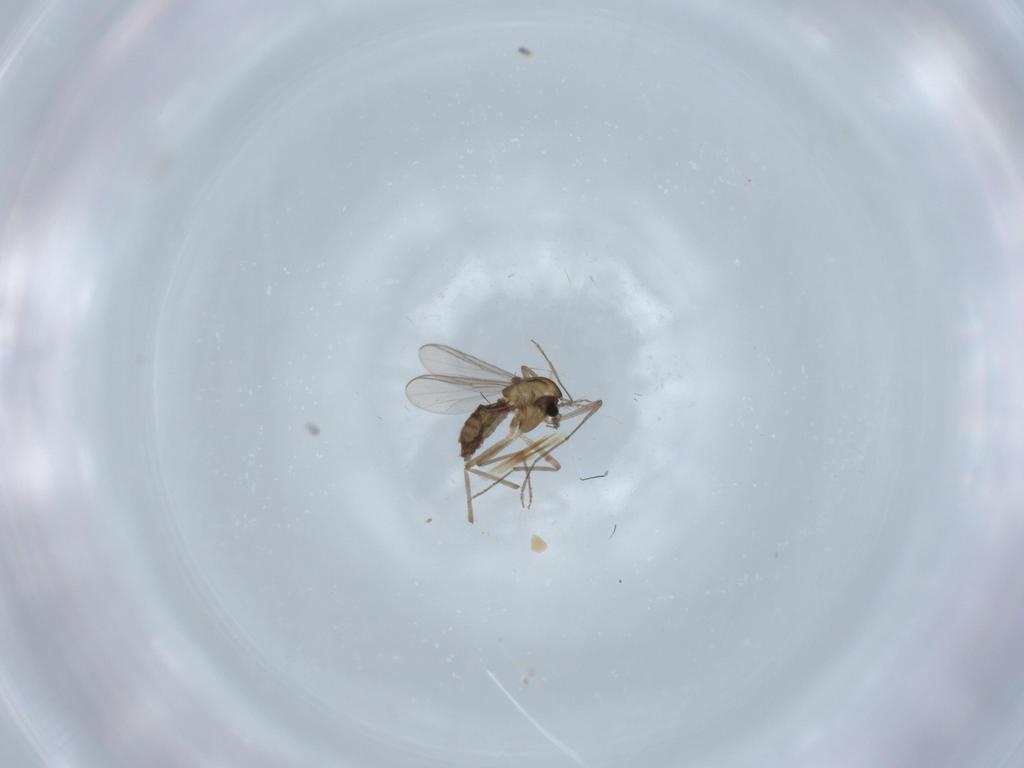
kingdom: Animalia
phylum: Arthropoda
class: Insecta
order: Diptera
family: Chironomidae
